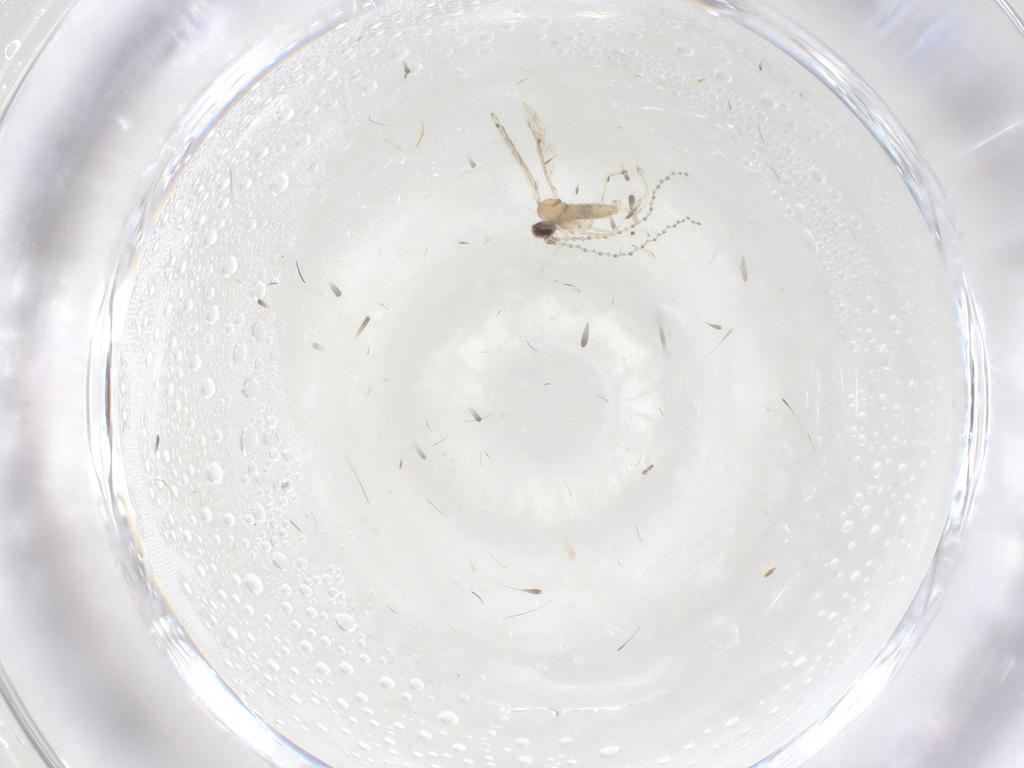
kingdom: Animalia
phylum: Arthropoda
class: Insecta
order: Diptera
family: Cecidomyiidae
